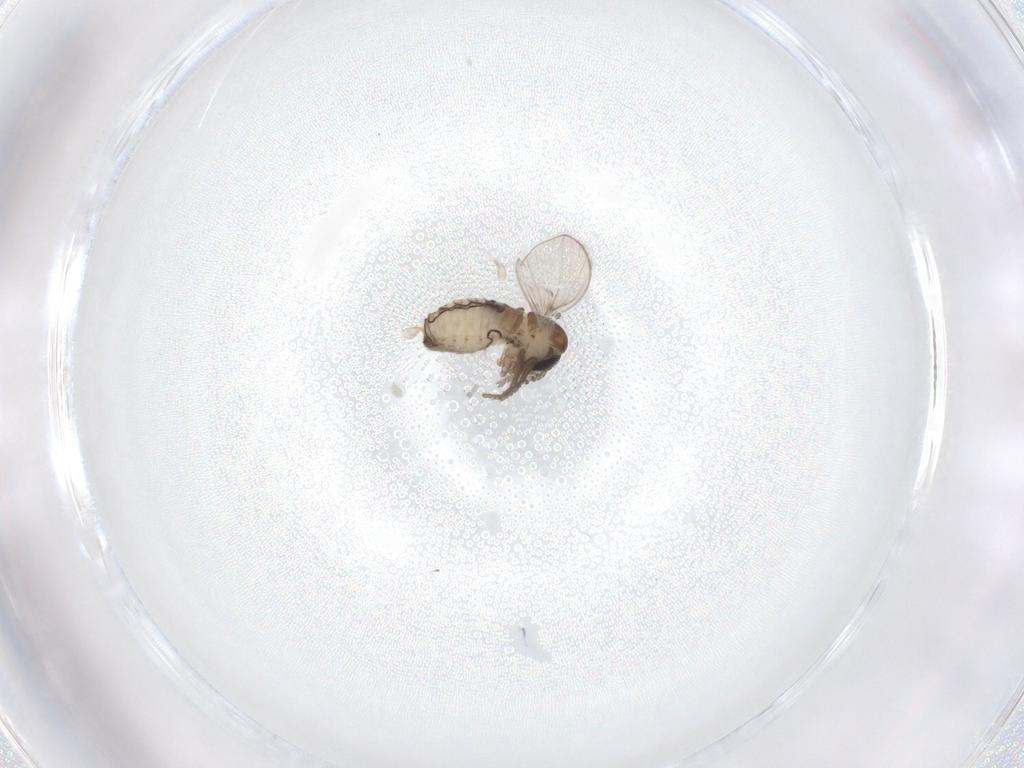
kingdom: Animalia
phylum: Arthropoda
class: Insecta
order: Diptera
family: Psychodidae
